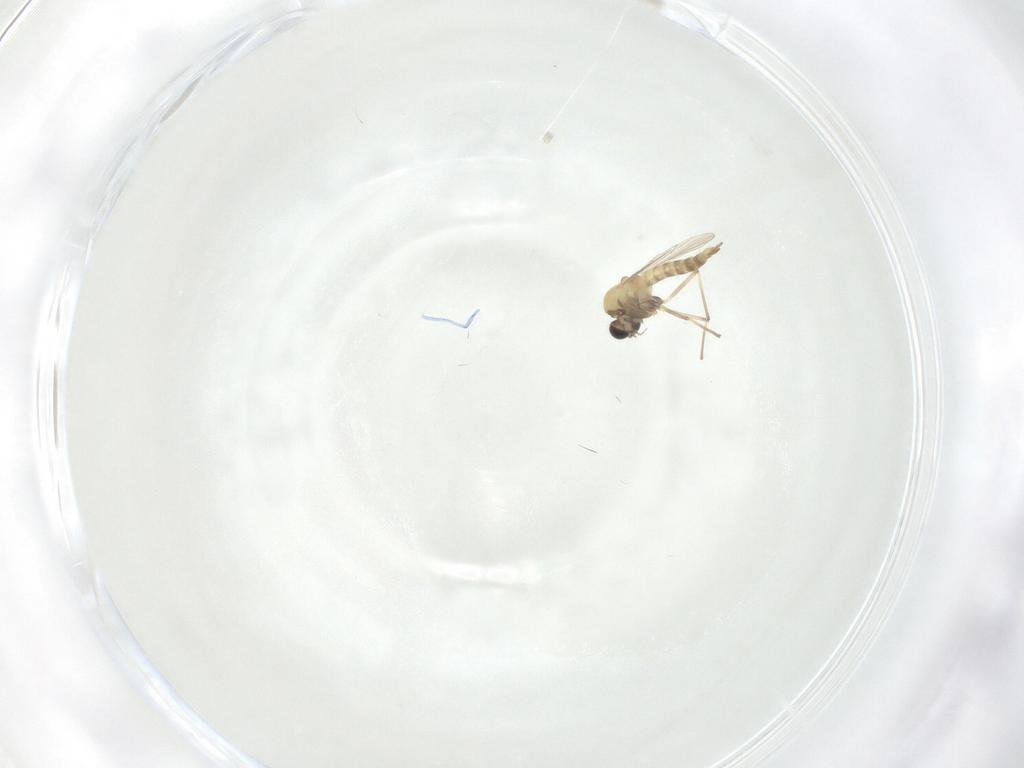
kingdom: Animalia
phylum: Arthropoda
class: Insecta
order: Diptera
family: Chironomidae
